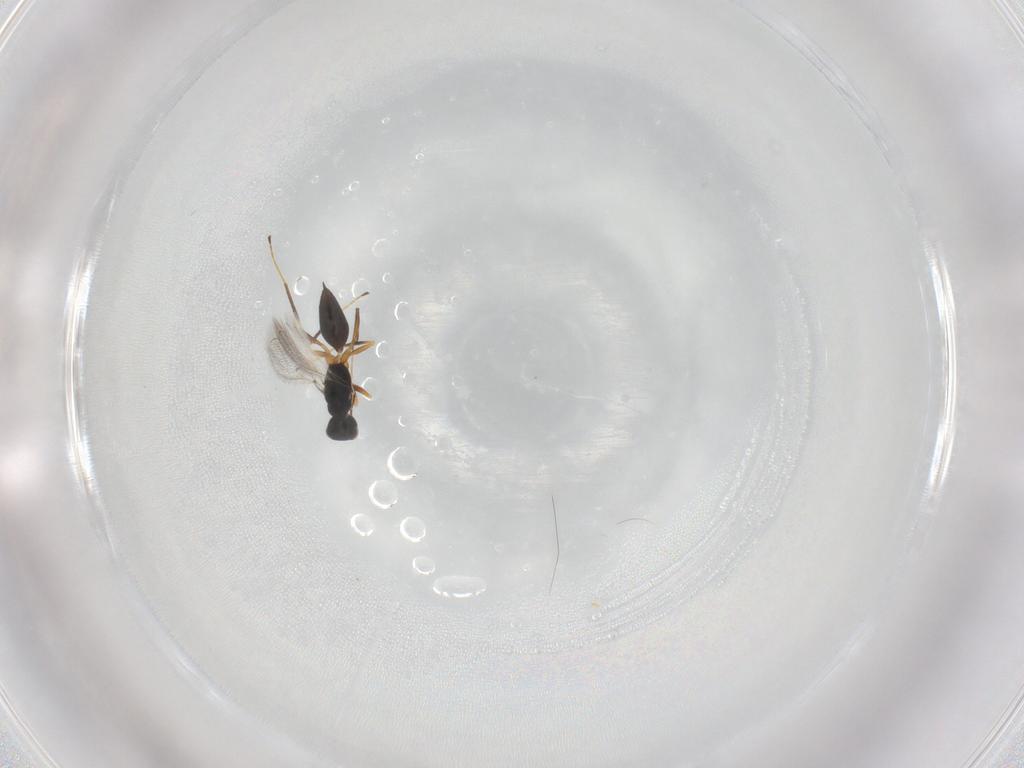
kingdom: Animalia
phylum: Arthropoda
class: Insecta
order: Hymenoptera
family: Mymaridae
